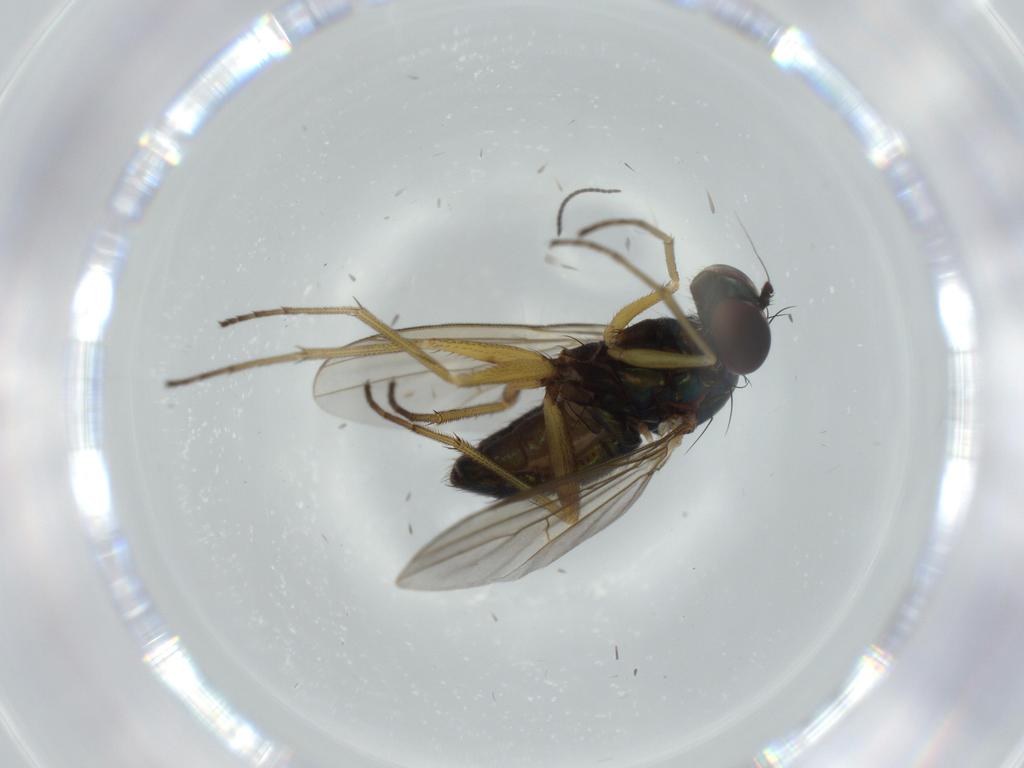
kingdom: Animalia
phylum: Arthropoda
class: Insecta
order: Diptera
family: Dolichopodidae
